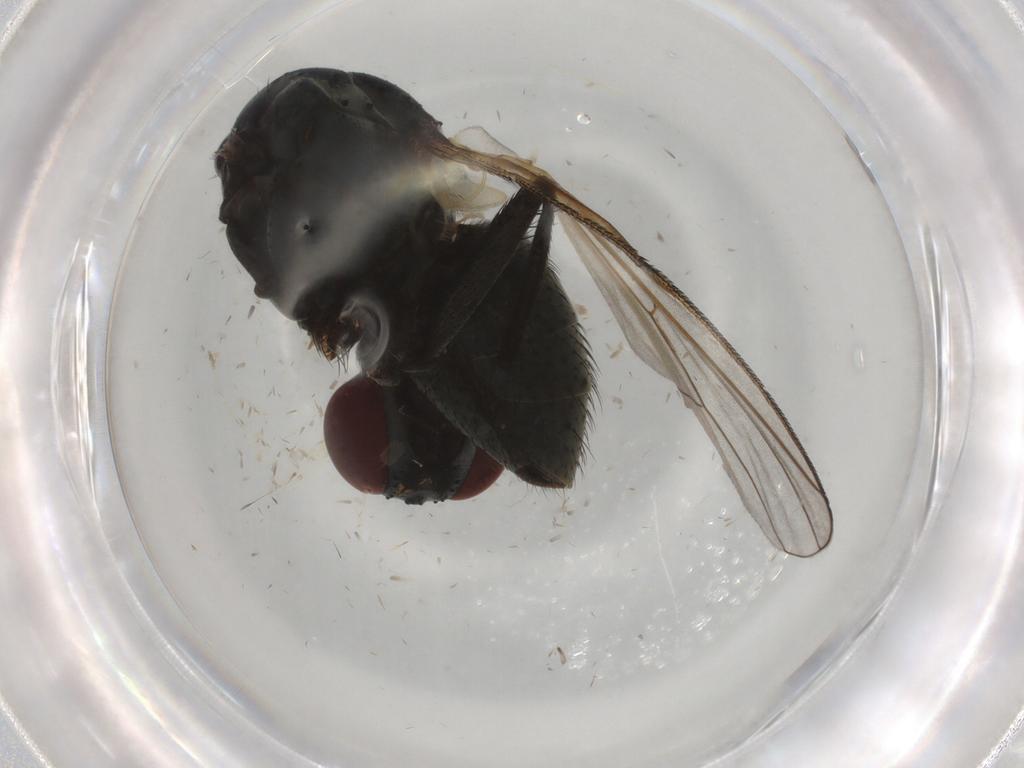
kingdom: Animalia
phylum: Arthropoda
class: Insecta
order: Diptera
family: Muscidae
